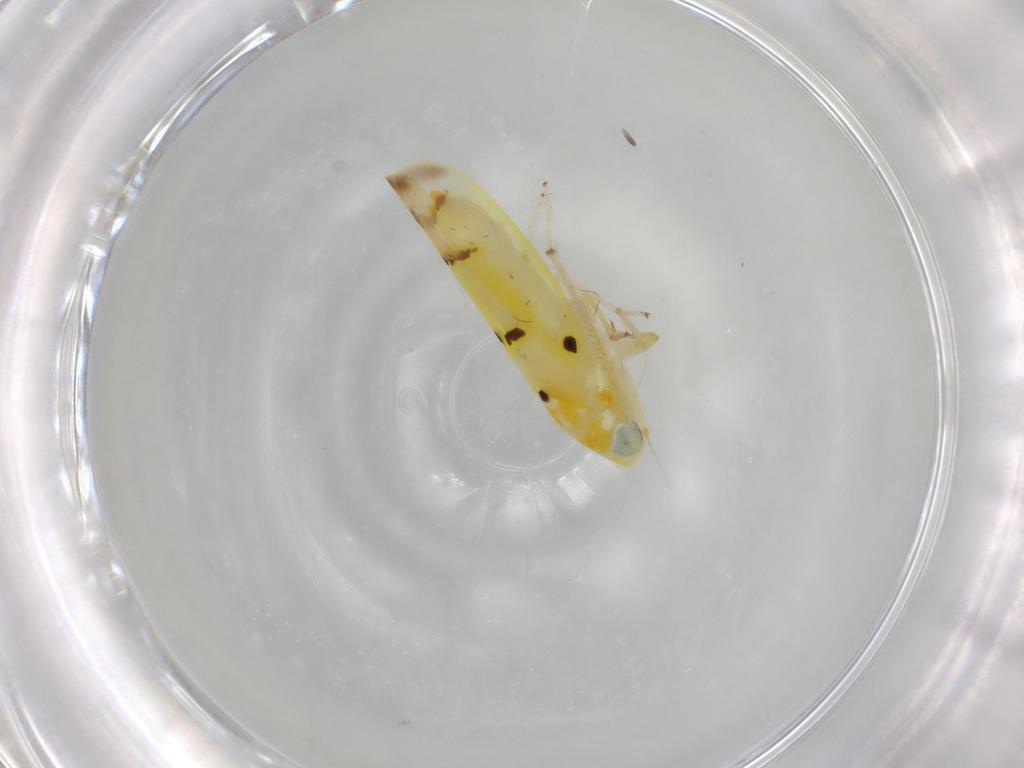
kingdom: Animalia
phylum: Arthropoda
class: Insecta
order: Hemiptera
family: Cicadellidae
